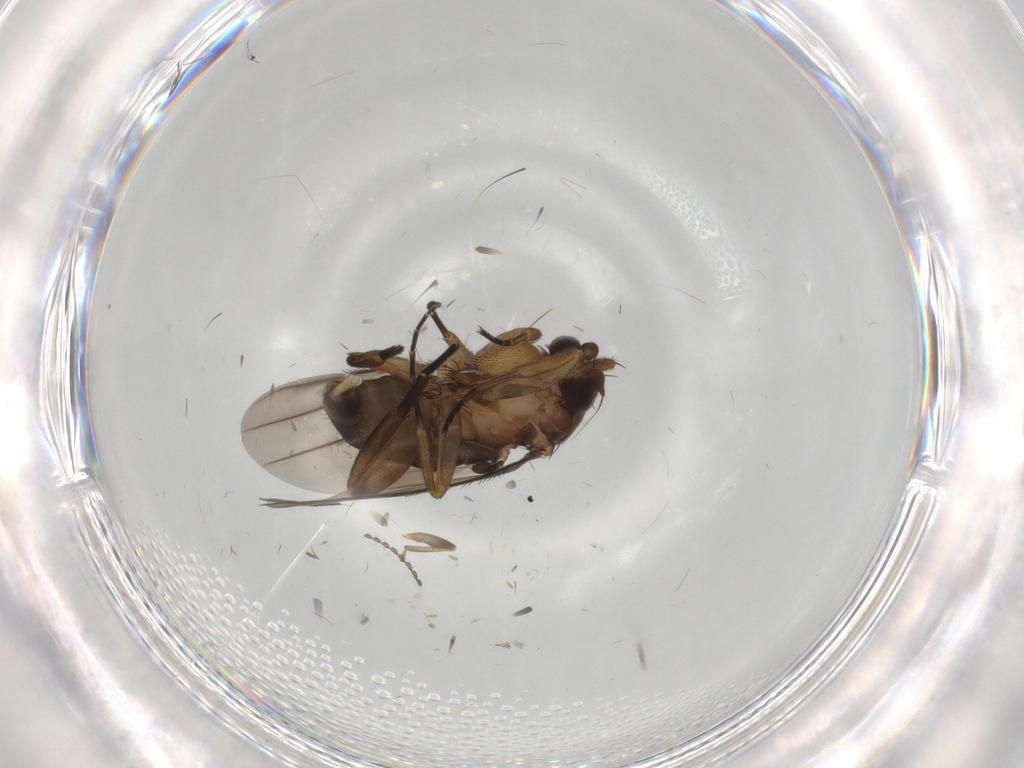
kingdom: Animalia
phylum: Arthropoda
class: Insecta
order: Diptera
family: Phoridae
